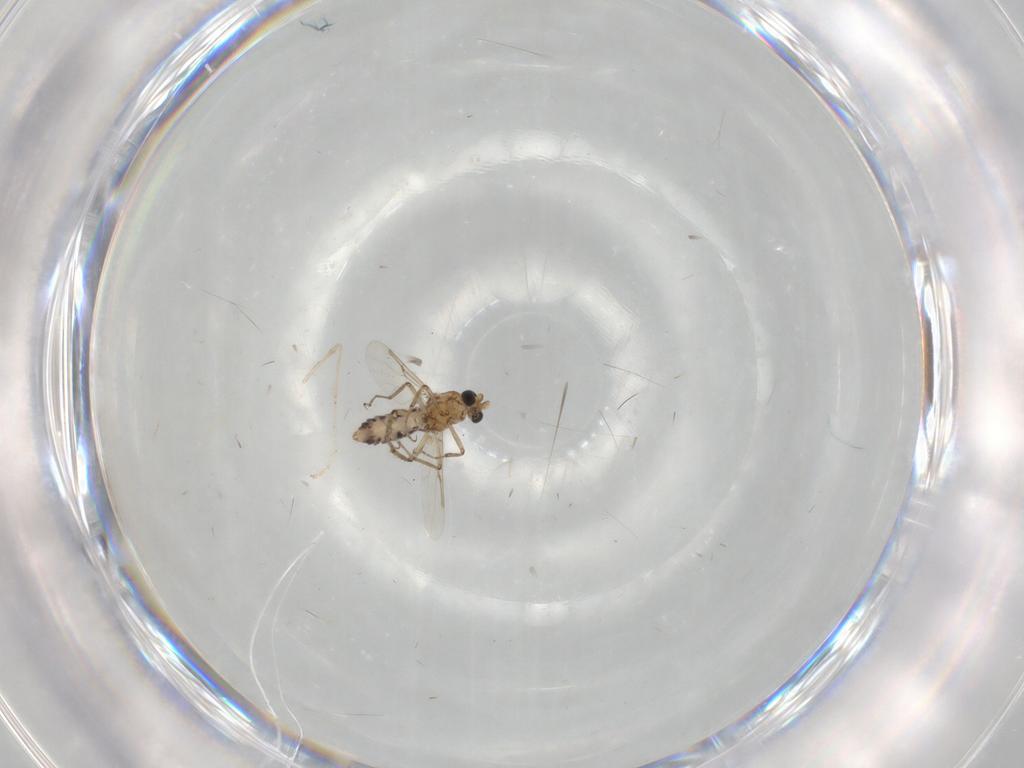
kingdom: Animalia
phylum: Arthropoda
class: Insecta
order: Diptera
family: Ceratopogonidae
